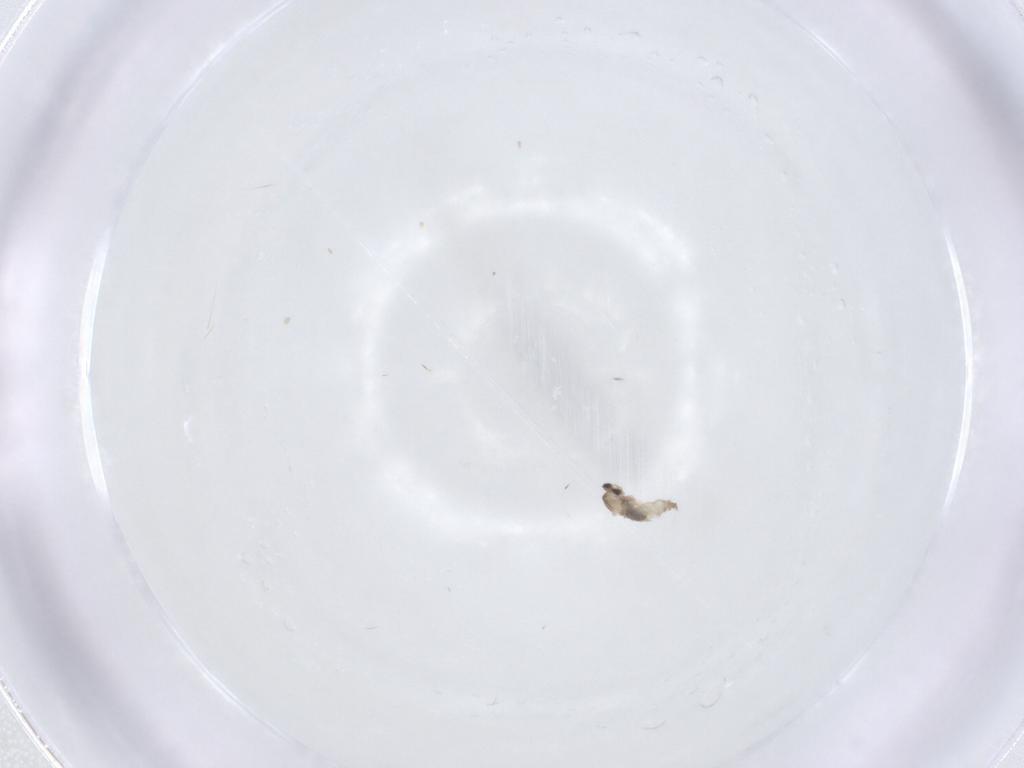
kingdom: Animalia
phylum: Arthropoda
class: Insecta
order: Diptera
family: Cecidomyiidae
